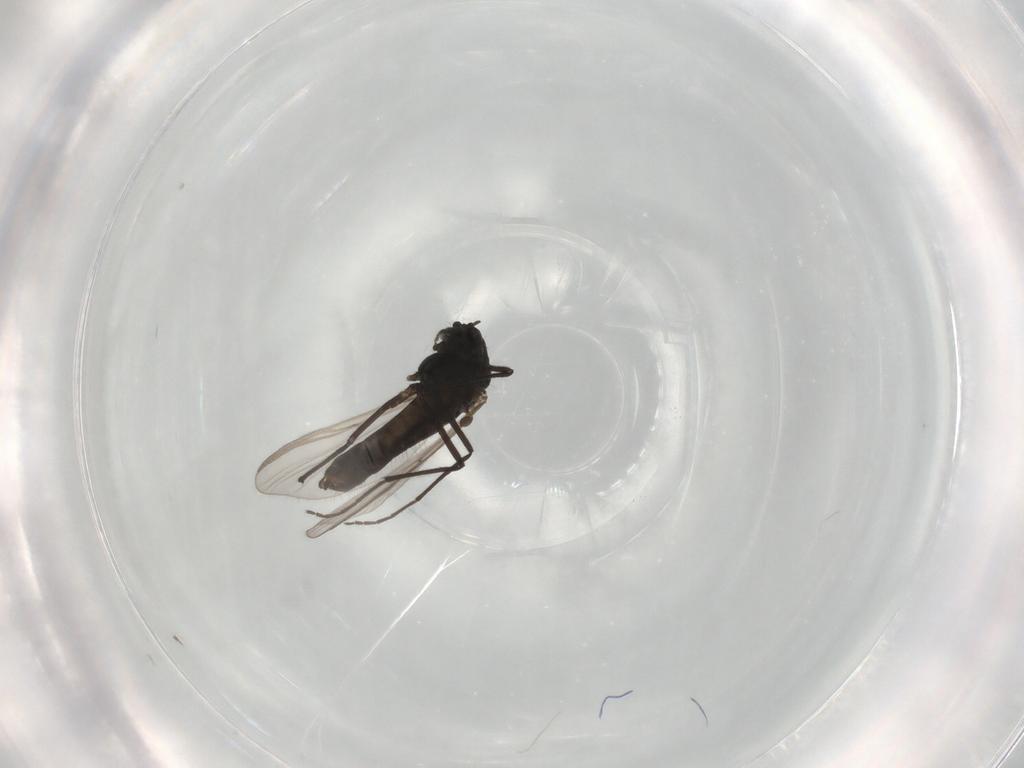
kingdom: Animalia
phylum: Arthropoda
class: Insecta
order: Diptera
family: Chironomidae
